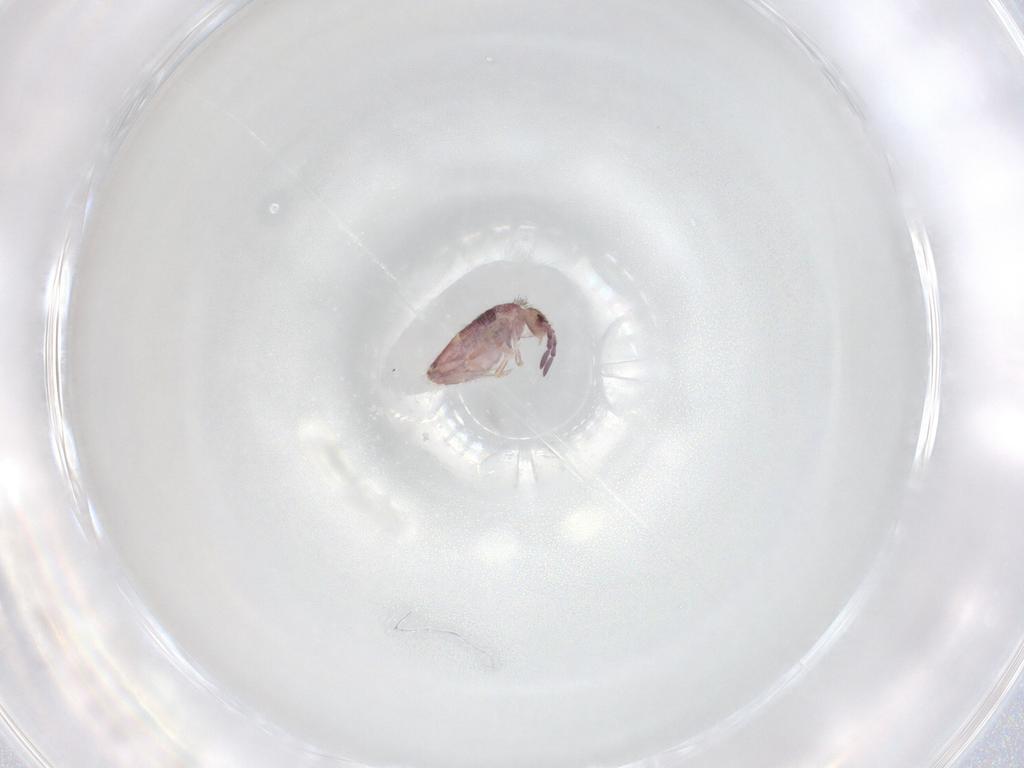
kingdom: Animalia
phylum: Arthropoda
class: Collembola
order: Entomobryomorpha
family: Entomobryidae
